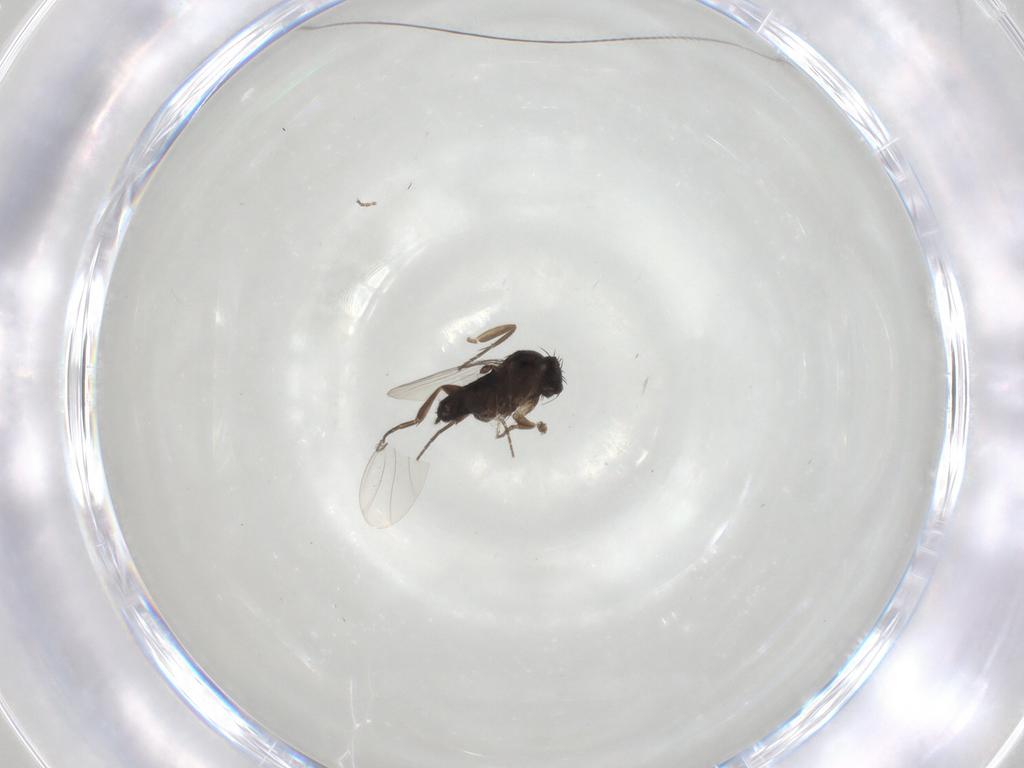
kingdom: Animalia
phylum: Arthropoda
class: Insecta
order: Diptera
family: Phoridae
